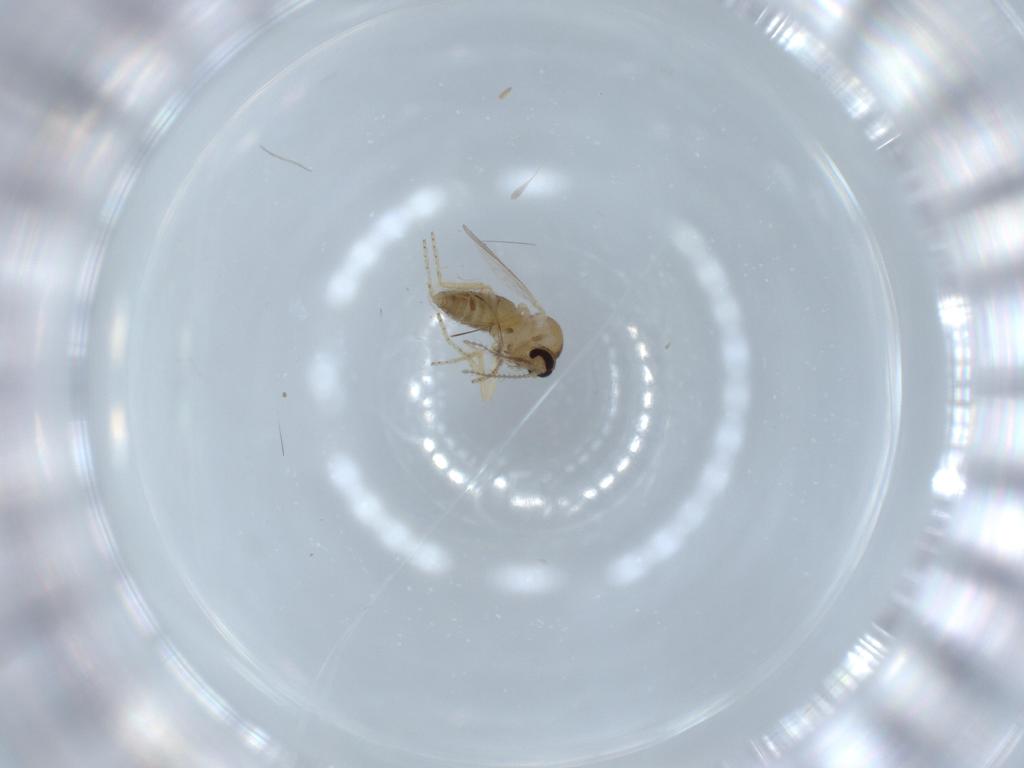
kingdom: Animalia
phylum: Arthropoda
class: Insecta
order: Diptera
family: Ceratopogonidae
